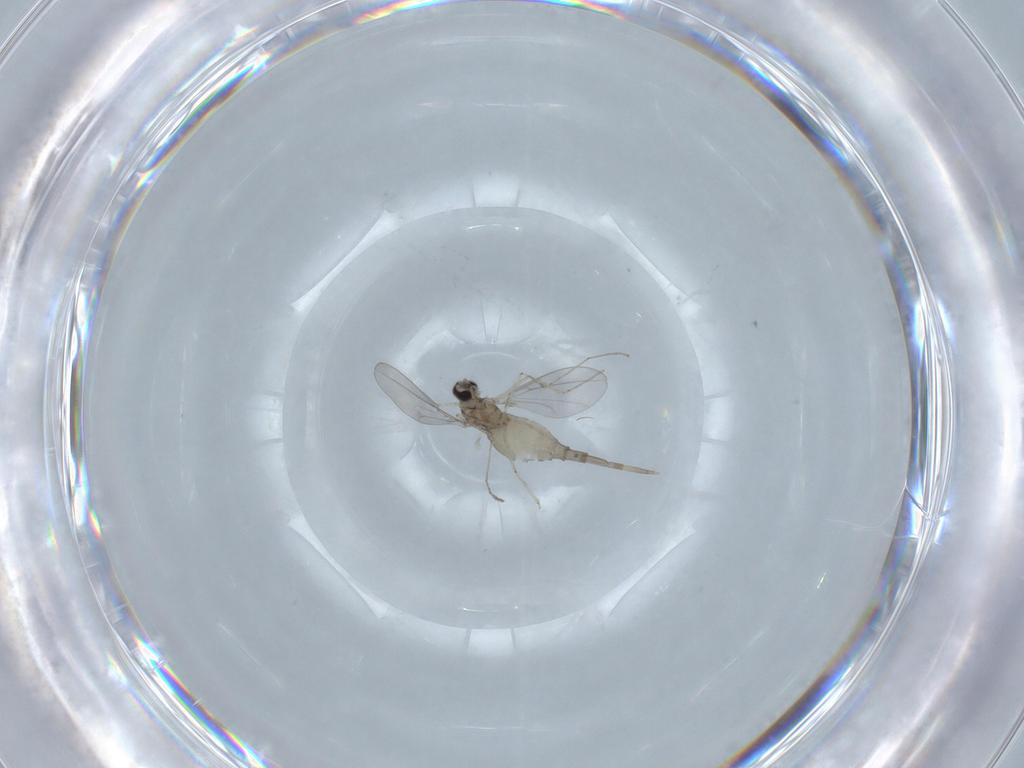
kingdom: Animalia
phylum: Arthropoda
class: Insecta
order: Diptera
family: Cecidomyiidae
